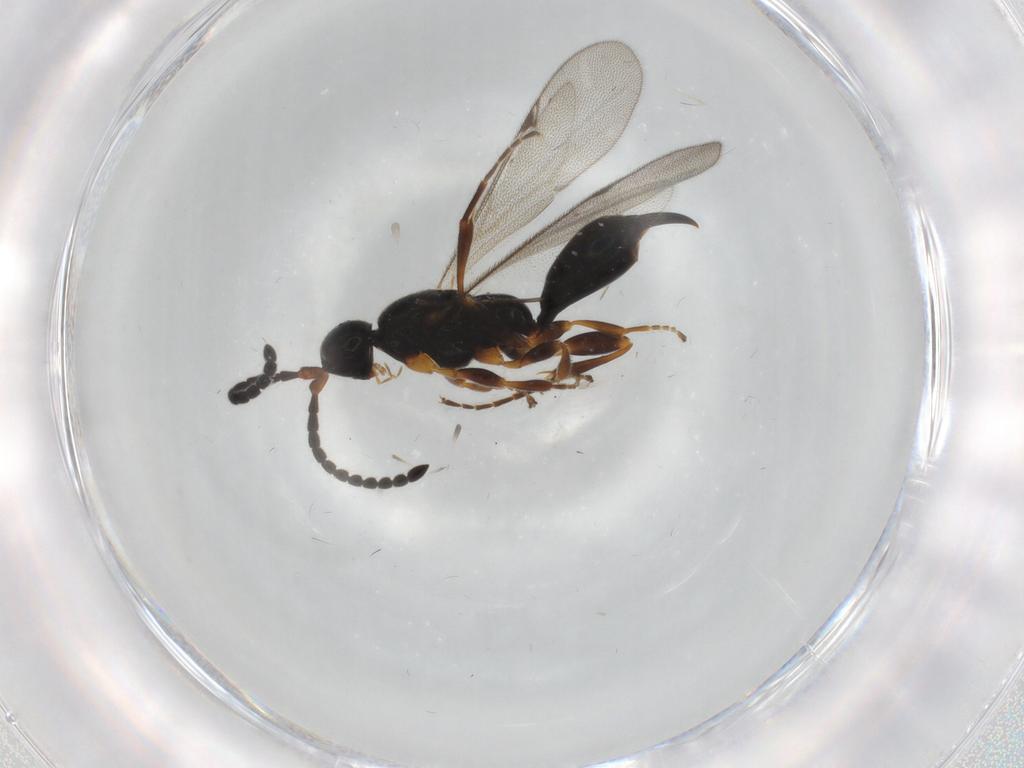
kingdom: Animalia
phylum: Arthropoda
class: Insecta
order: Hymenoptera
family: Proctotrupidae
